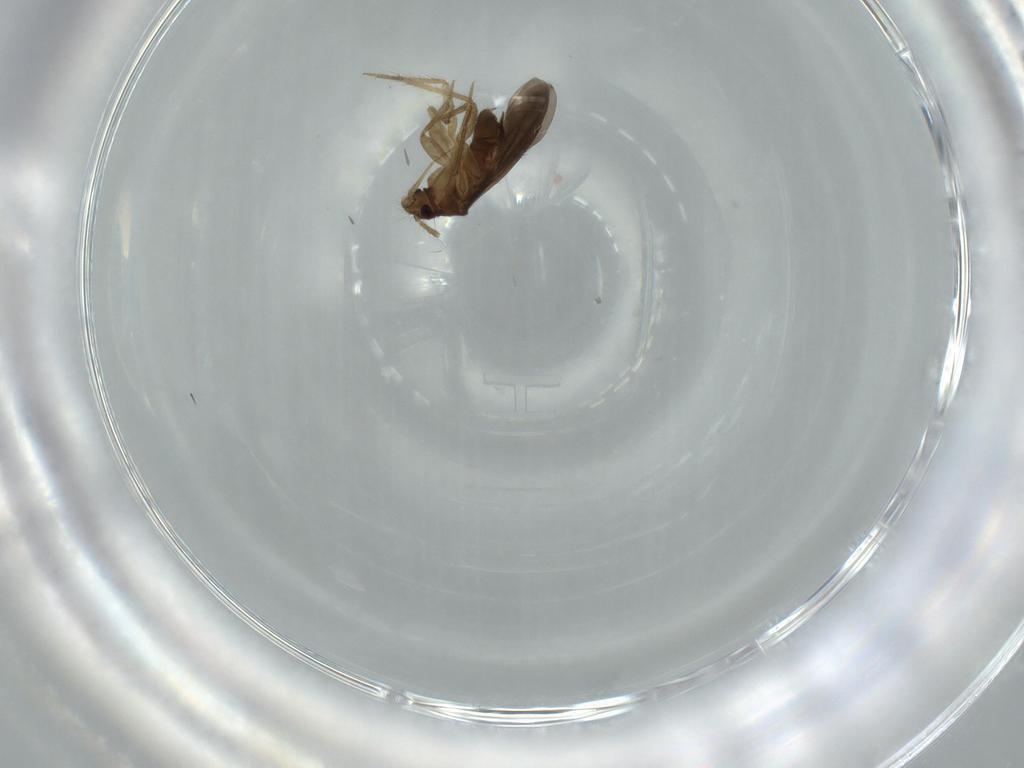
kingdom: Animalia
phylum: Arthropoda
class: Insecta
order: Hemiptera
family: Ceratocombidae
